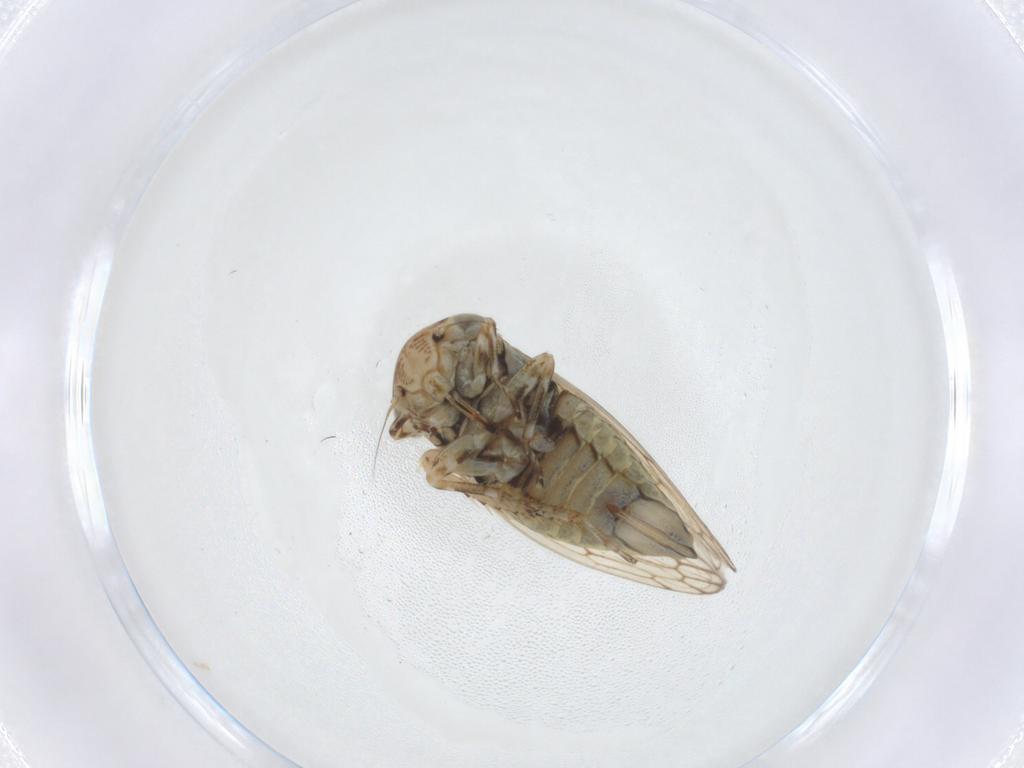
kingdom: Animalia
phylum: Arthropoda
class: Insecta
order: Hemiptera
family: Cicadellidae
